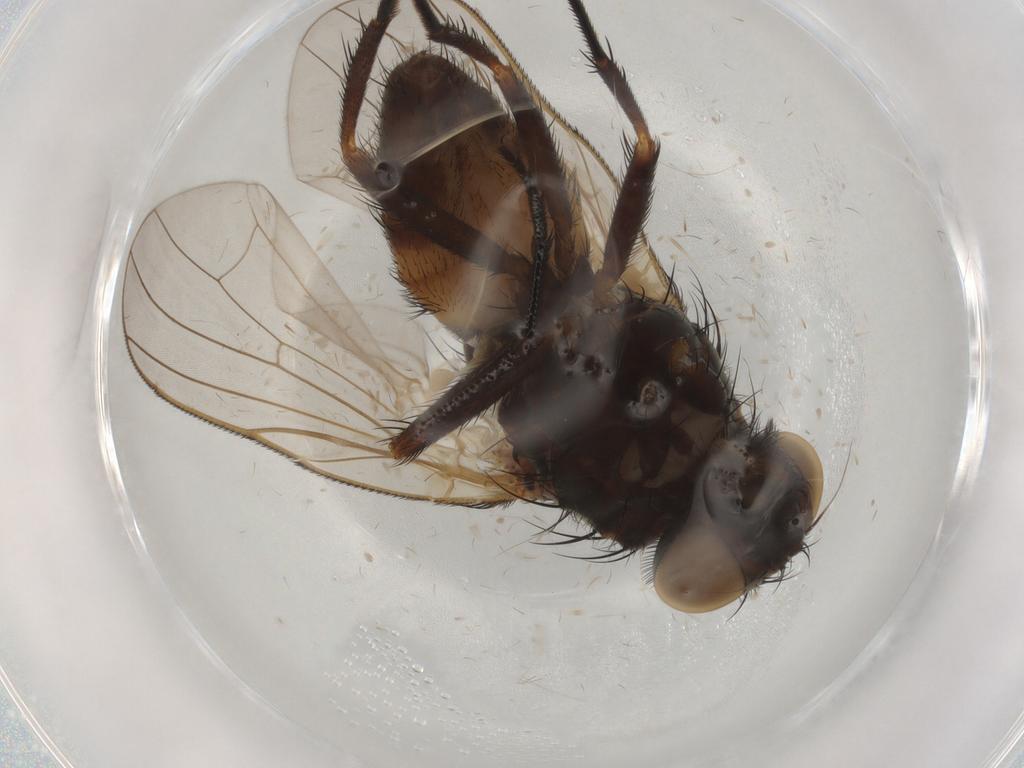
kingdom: Animalia
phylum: Arthropoda
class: Insecta
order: Diptera
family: Fannia
